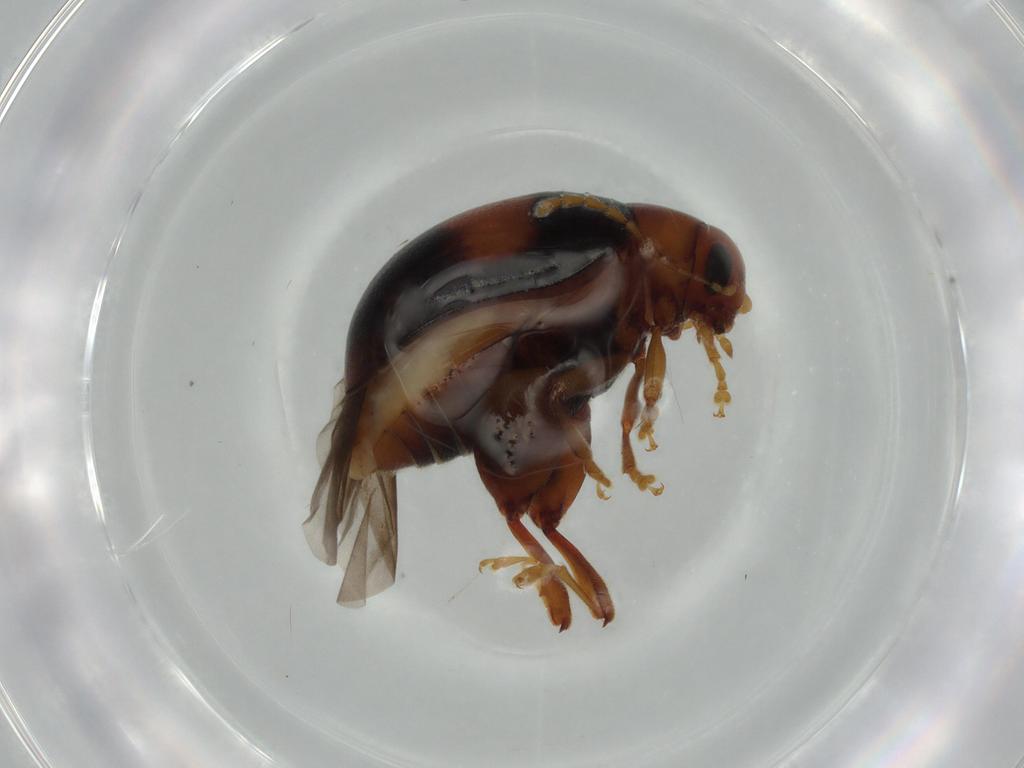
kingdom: Animalia
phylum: Arthropoda
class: Insecta
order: Coleoptera
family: Chrysomelidae
